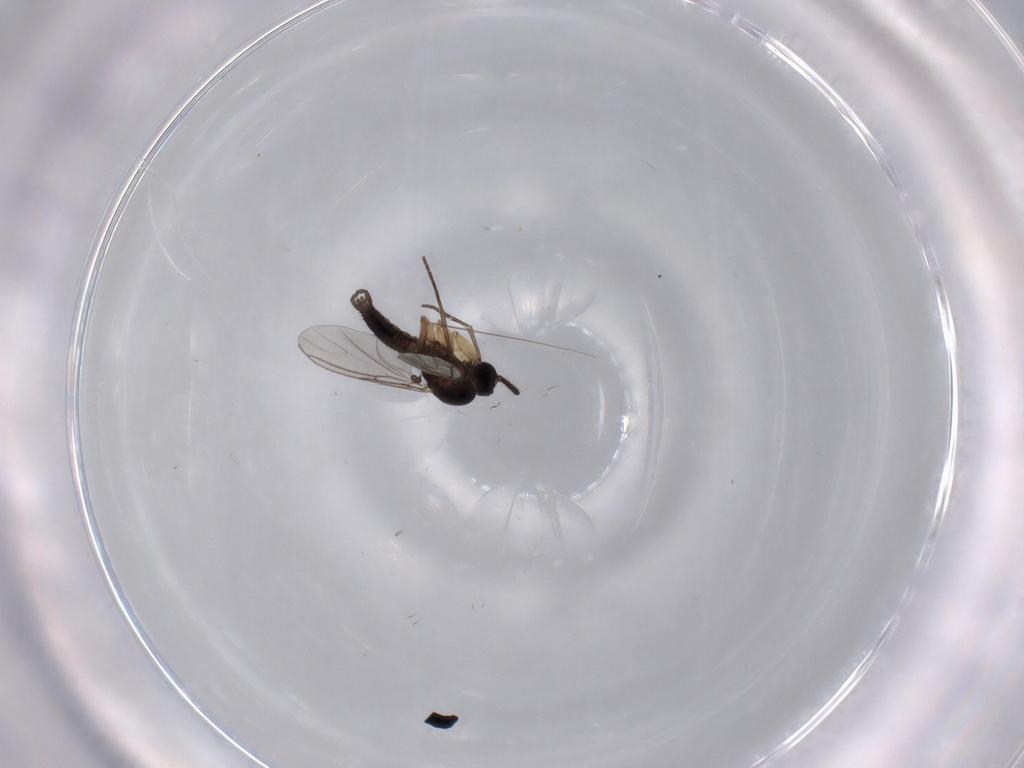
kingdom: Animalia
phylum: Arthropoda
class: Insecta
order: Diptera
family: Sciaridae
